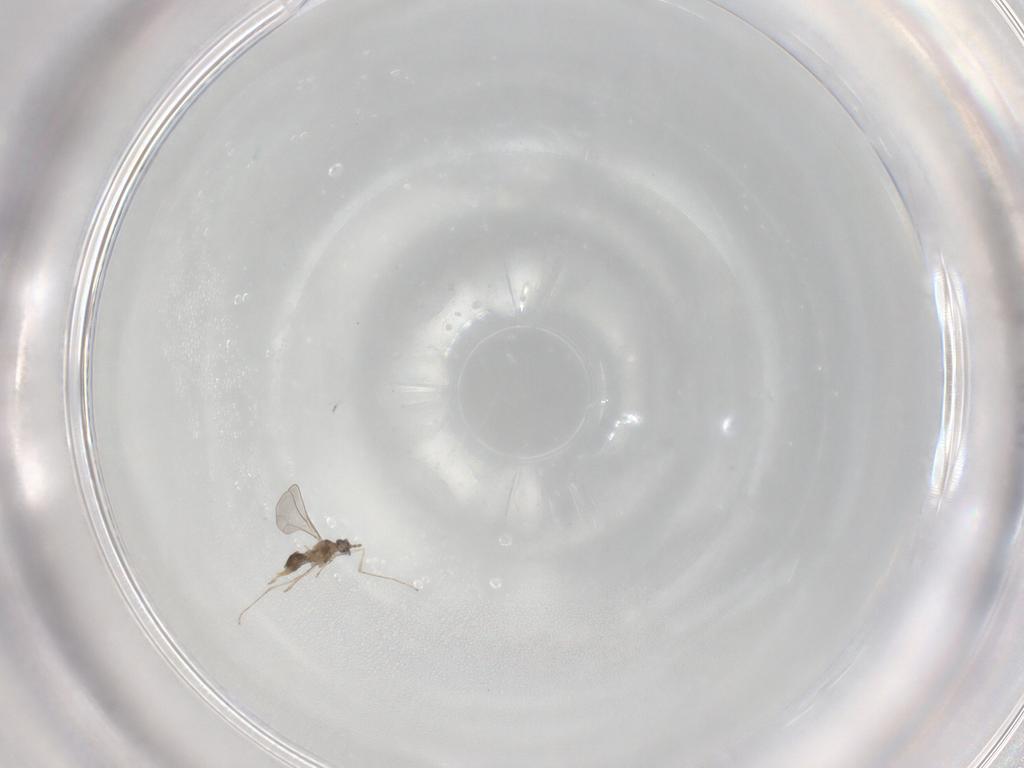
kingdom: Animalia
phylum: Arthropoda
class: Insecta
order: Diptera
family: Cecidomyiidae
